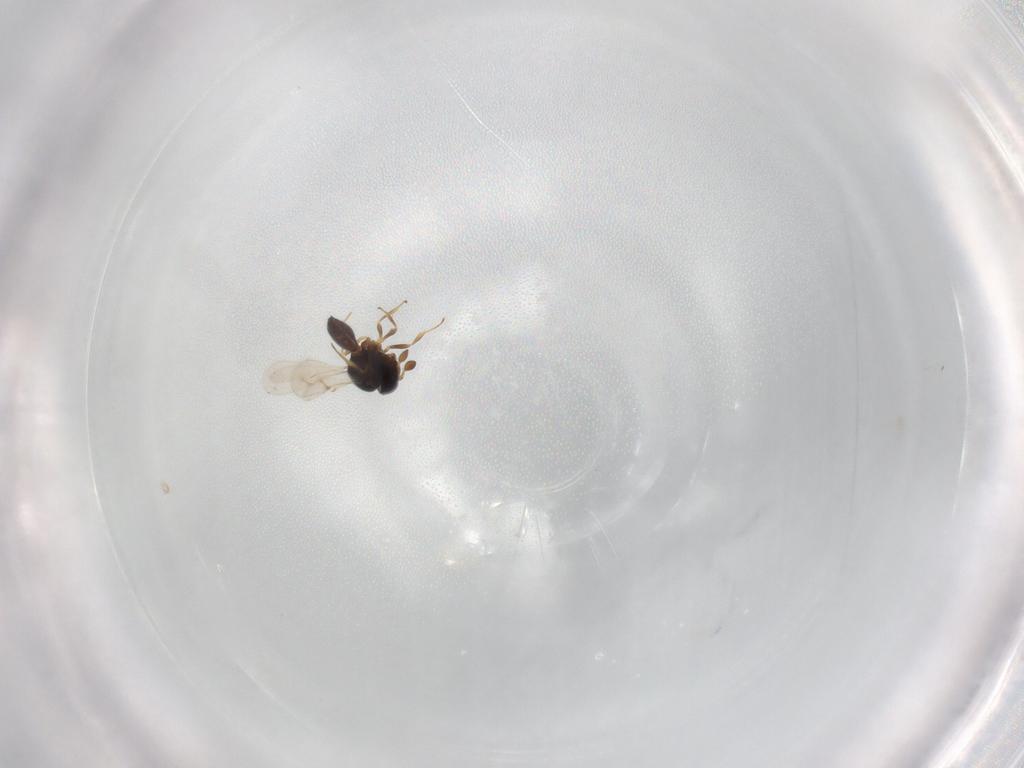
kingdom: Animalia
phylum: Arthropoda
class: Insecta
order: Hymenoptera
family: Scelionidae
